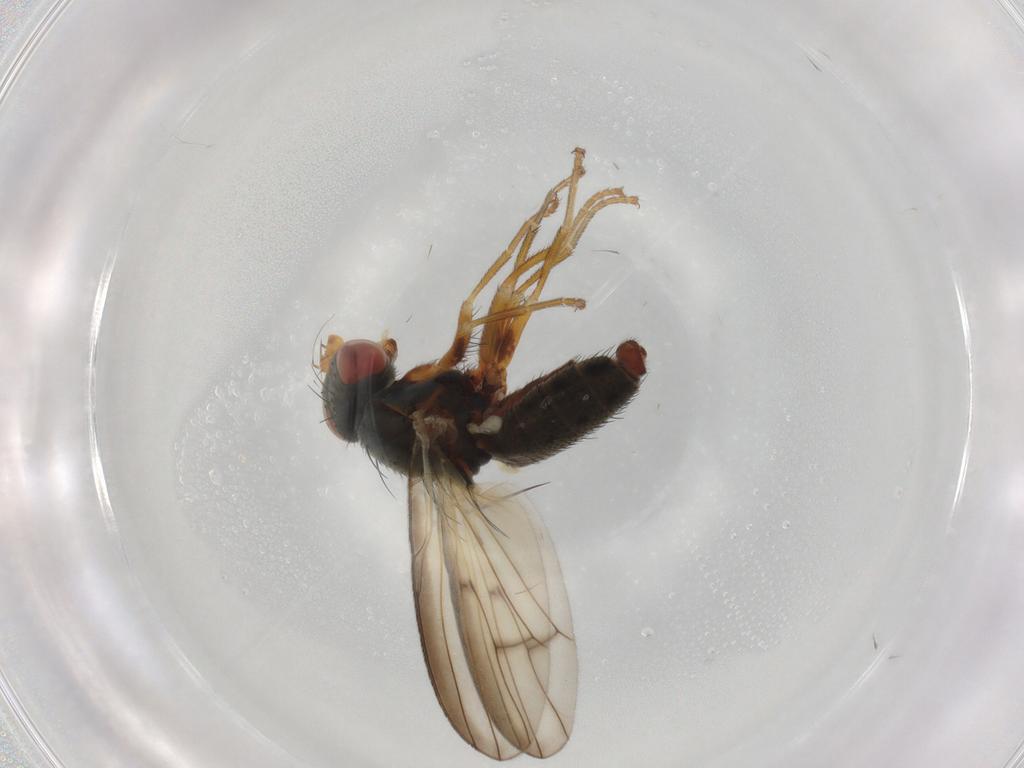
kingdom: Animalia
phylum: Arthropoda
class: Insecta
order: Diptera
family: Chamaemyiidae
